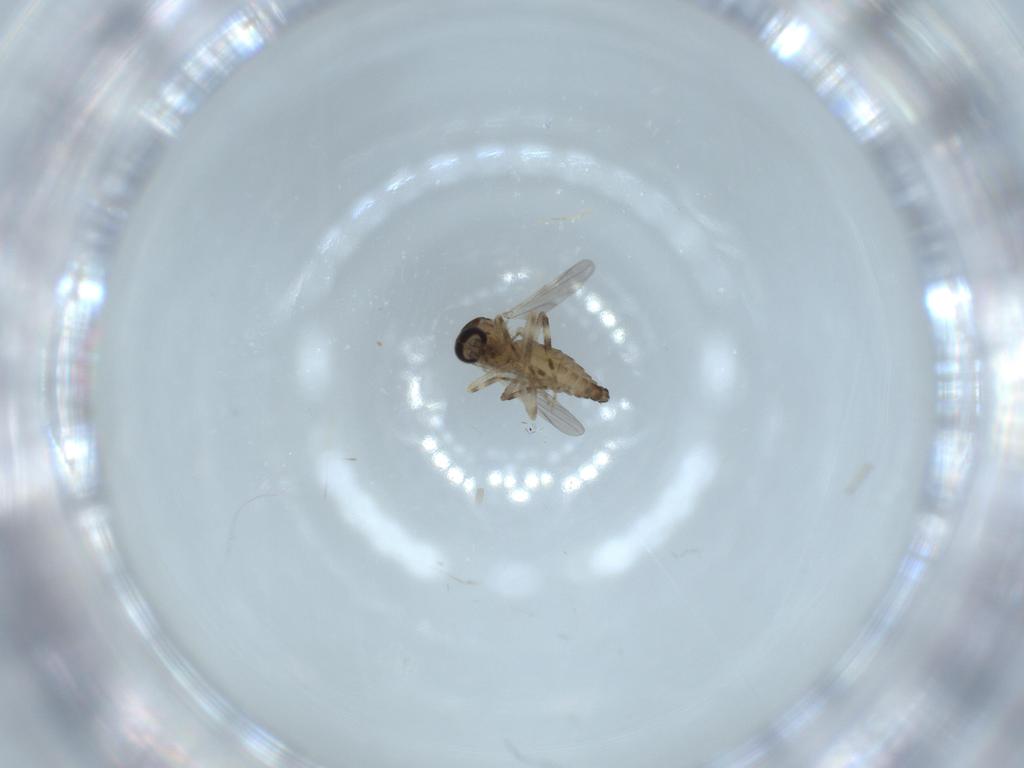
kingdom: Animalia
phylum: Arthropoda
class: Insecta
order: Diptera
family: Ceratopogonidae
